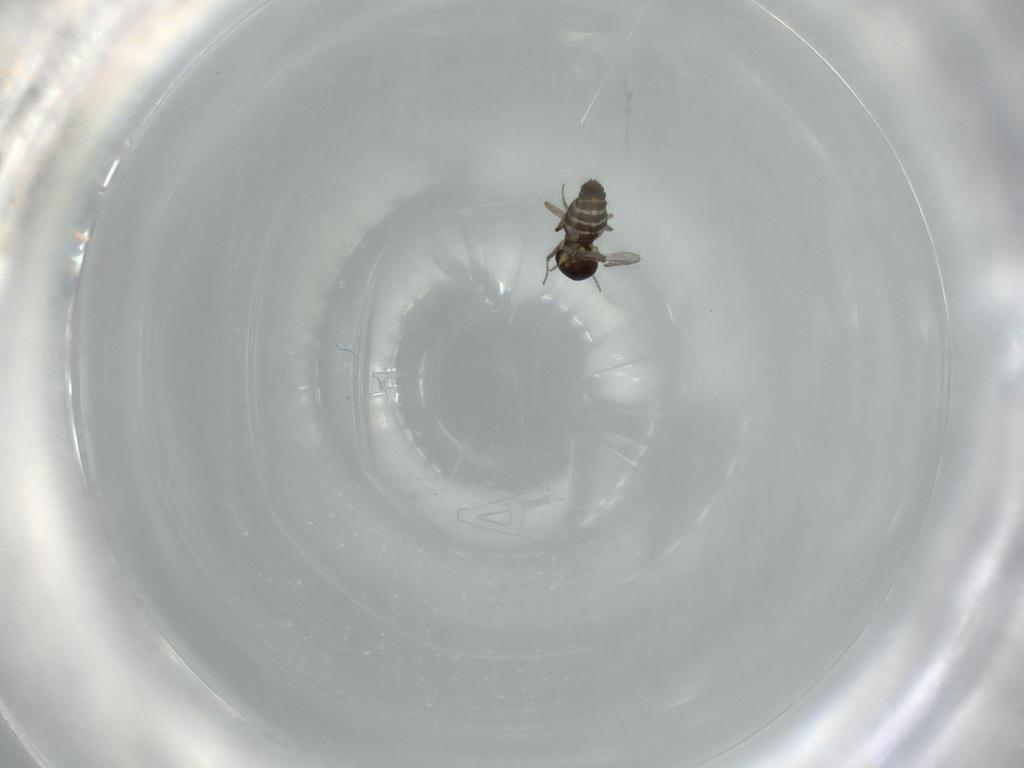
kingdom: Animalia
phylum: Arthropoda
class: Insecta
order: Diptera
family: Ceratopogonidae
